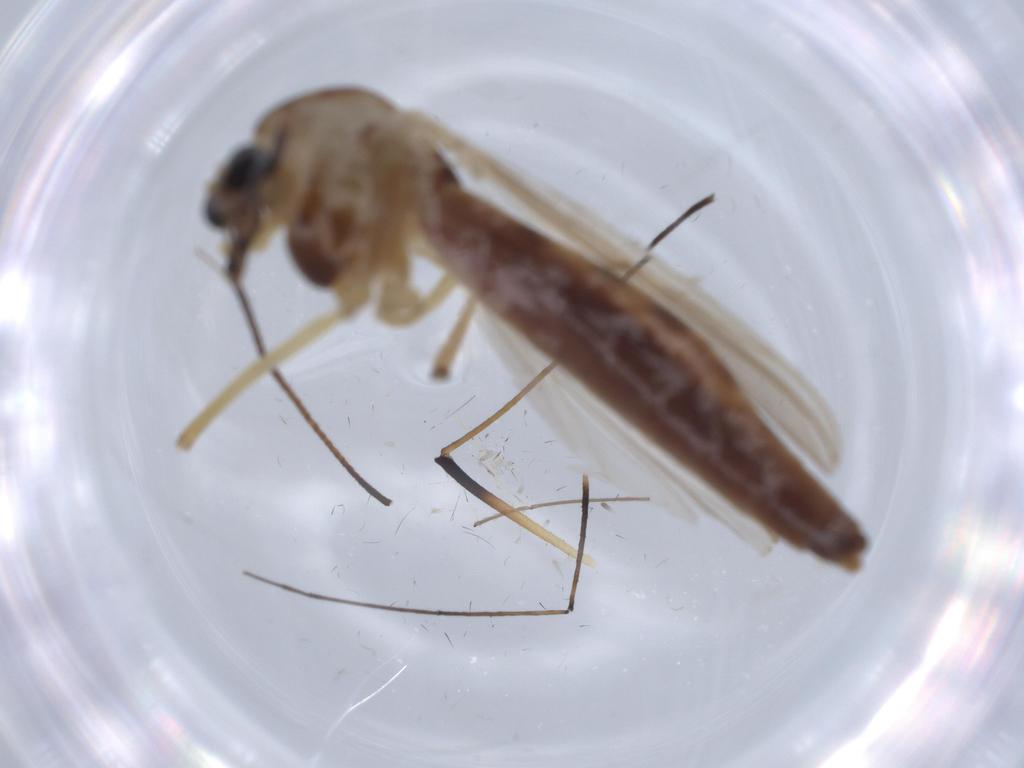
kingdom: Animalia
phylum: Arthropoda
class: Insecta
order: Diptera
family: Chironomidae
